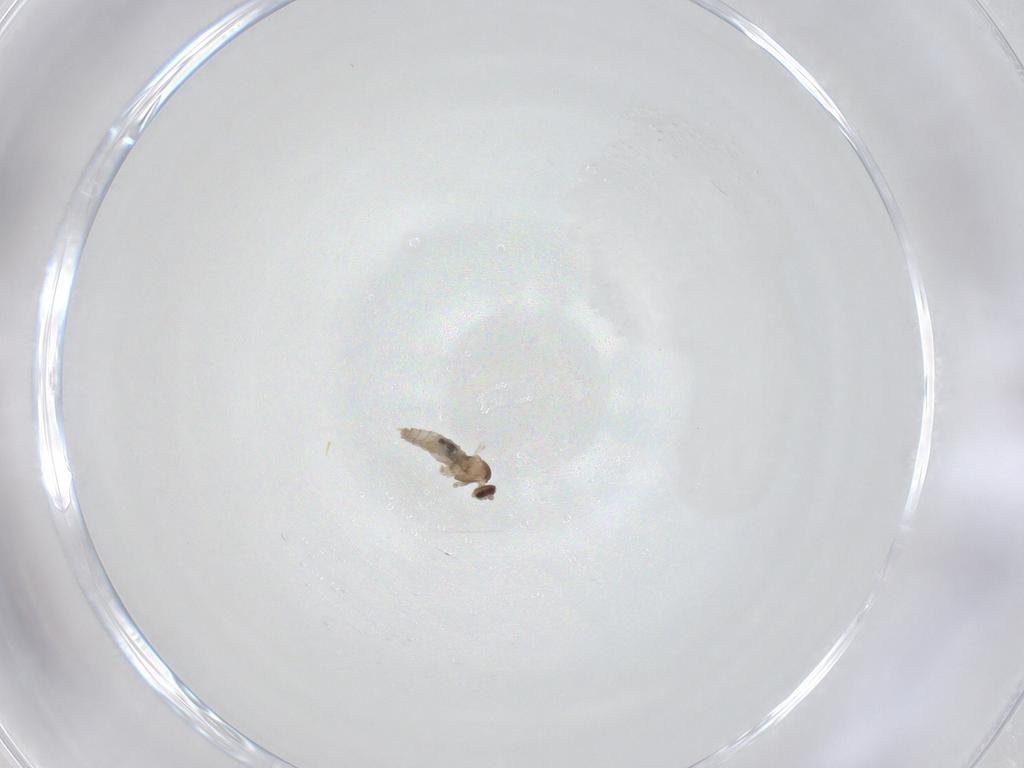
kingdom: Animalia
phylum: Arthropoda
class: Insecta
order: Diptera
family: Cecidomyiidae
